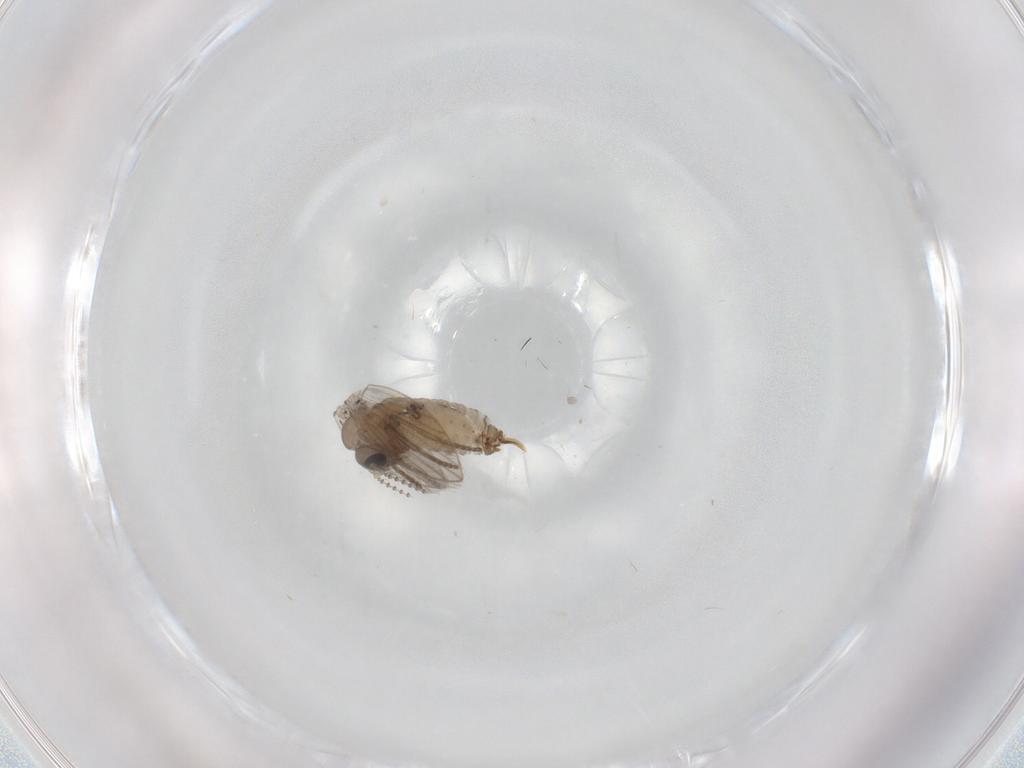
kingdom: Animalia
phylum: Arthropoda
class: Insecta
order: Diptera
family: Psychodidae
